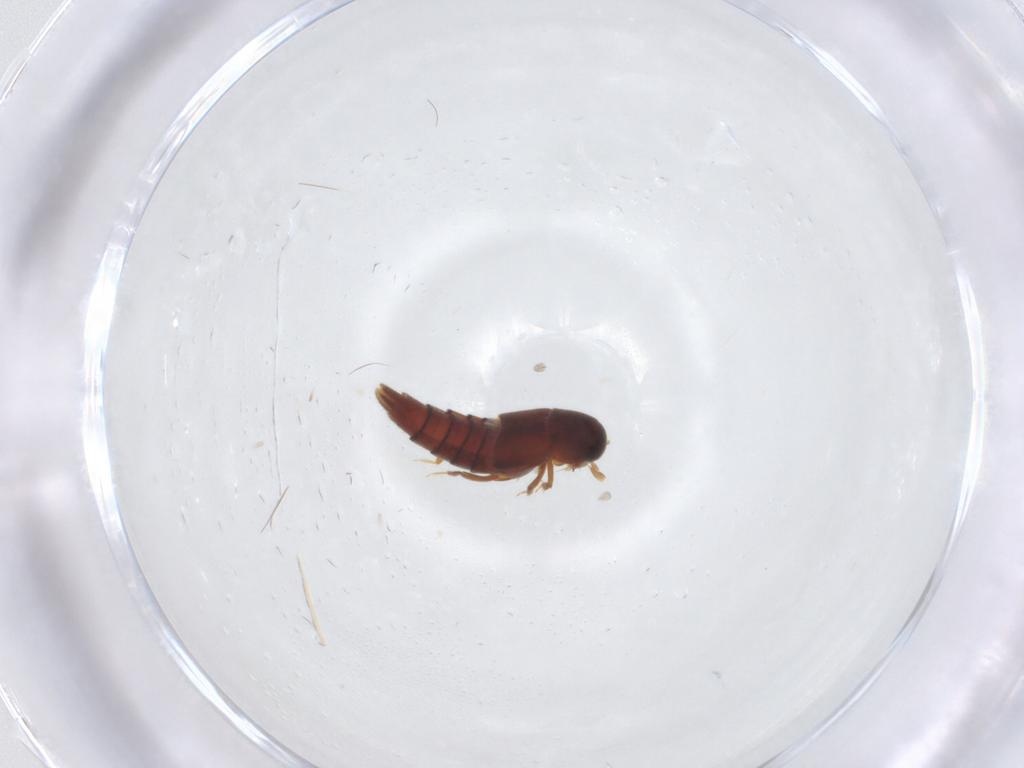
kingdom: Animalia
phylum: Arthropoda
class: Insecta
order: Coleoptera
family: Staphylinidae
